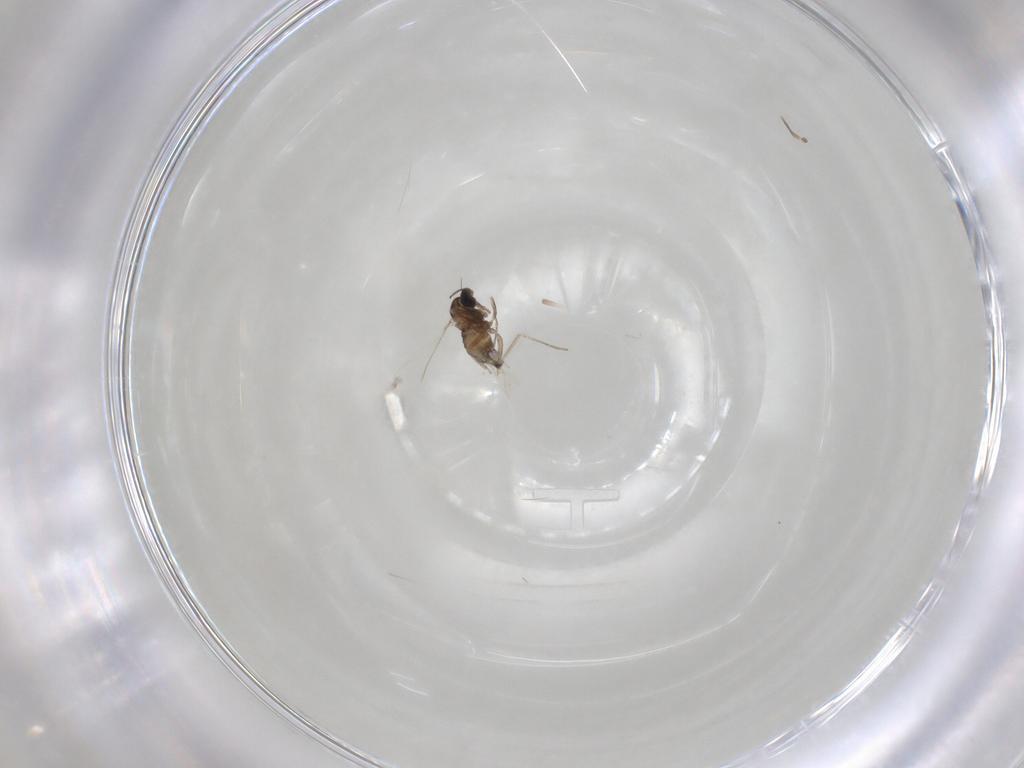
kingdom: Animalia
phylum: Arthropoda
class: Insecta
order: Diptera
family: Cecidomyiidae
